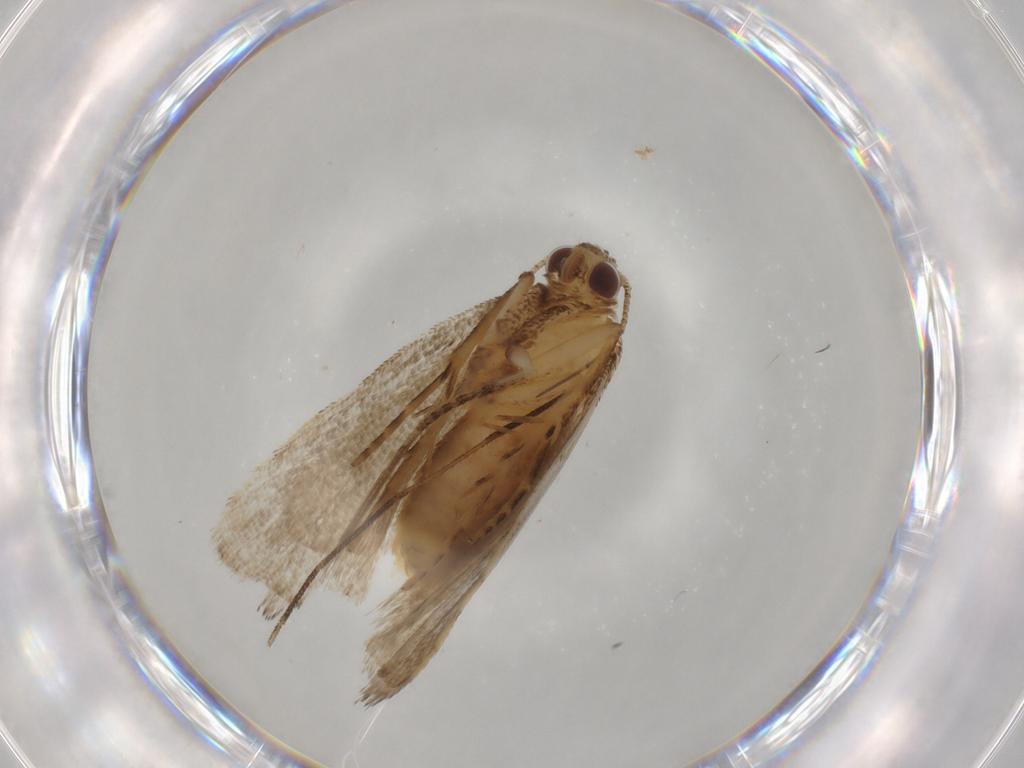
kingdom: Animalia
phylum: Arthropoda
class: Insecta
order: Lepidoptera
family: Erebidae
